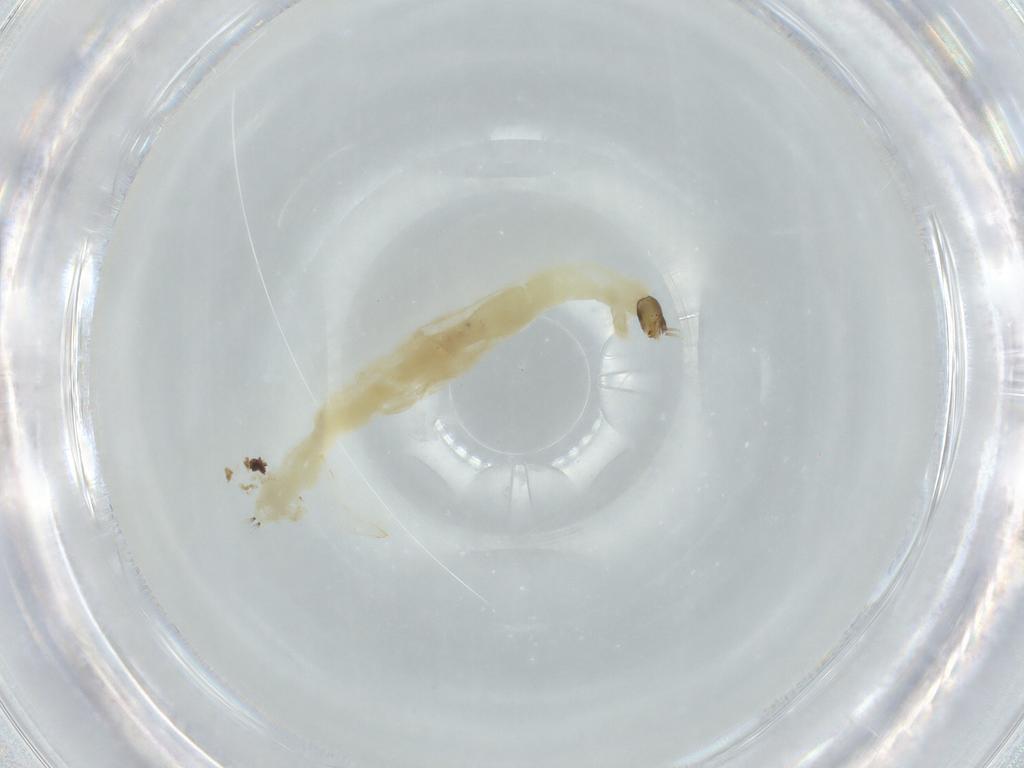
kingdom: Animalia
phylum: Arthropoda
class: Insecta
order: Diptera
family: Chironomidae
